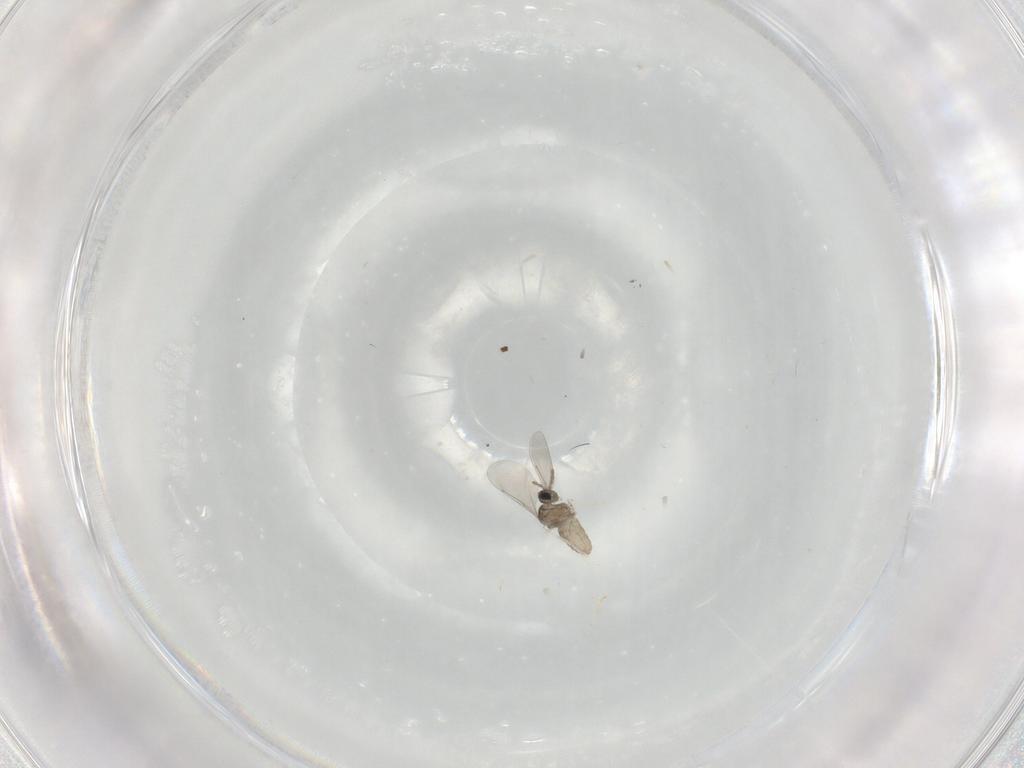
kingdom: Animalia
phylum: Arthropoda
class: Insecta
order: Diptera
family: Cecidomyiidae
